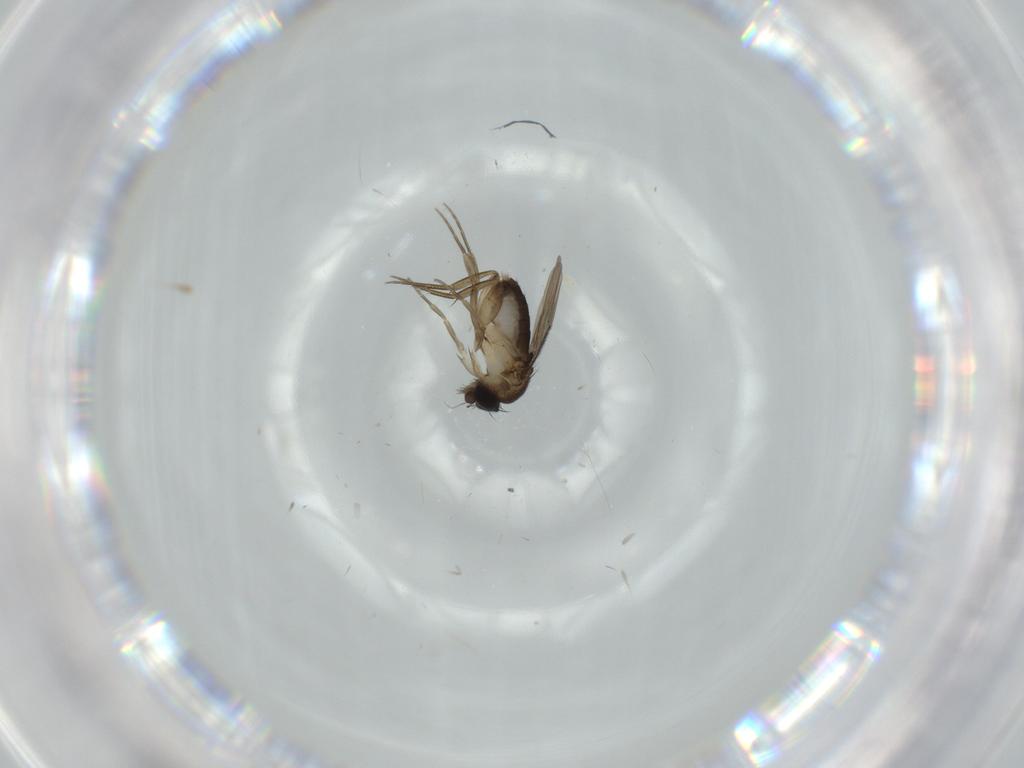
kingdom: Animalia
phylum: Arthropoda
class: Insecta
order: Diptera
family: Phoridae
